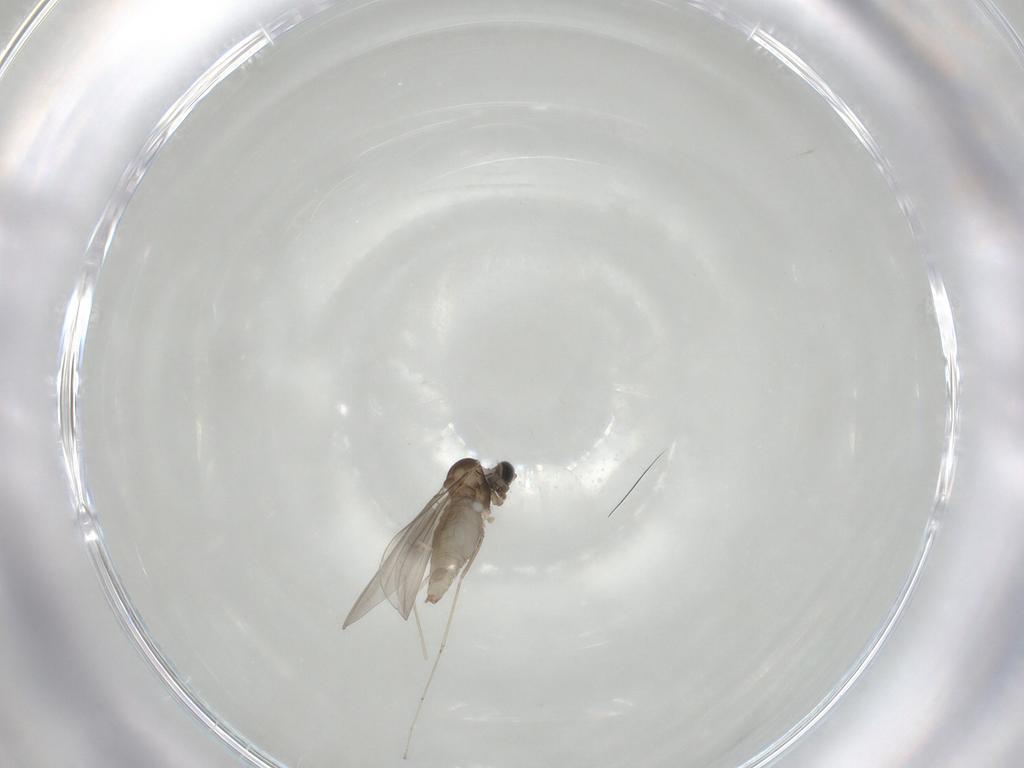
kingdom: Animalia
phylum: Arthropoda
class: Insecta
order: Diptera
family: Cecidomyiidae
